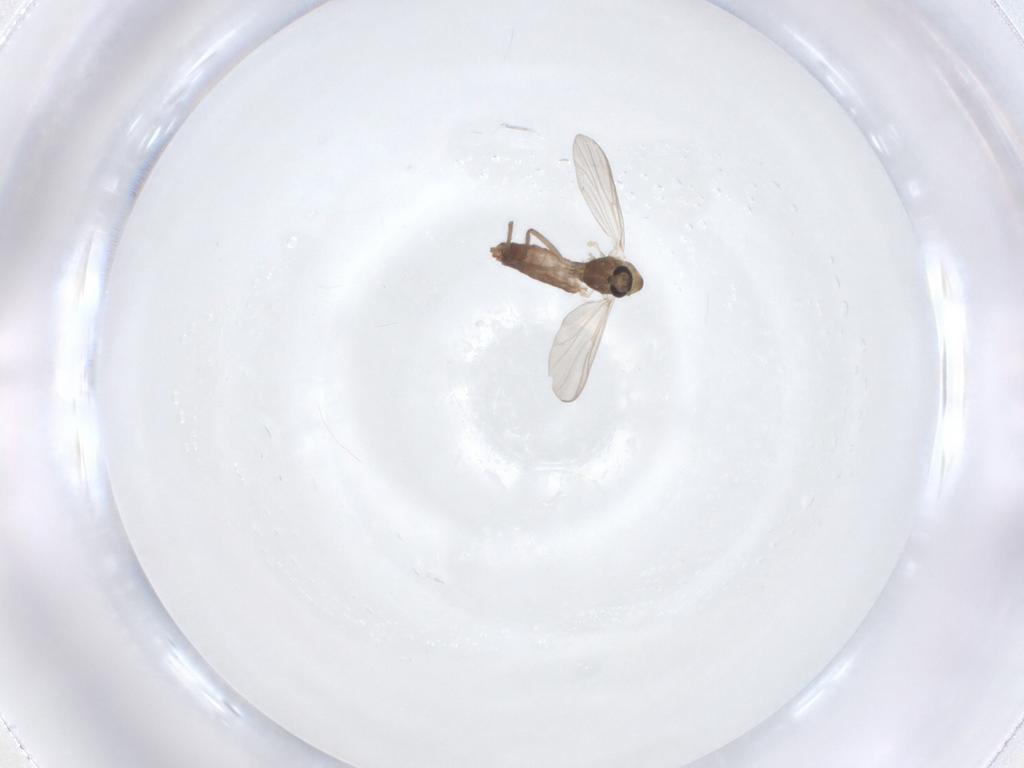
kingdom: Animalia
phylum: Arthropoda
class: Insecta
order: Diptera
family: Chironomidae
